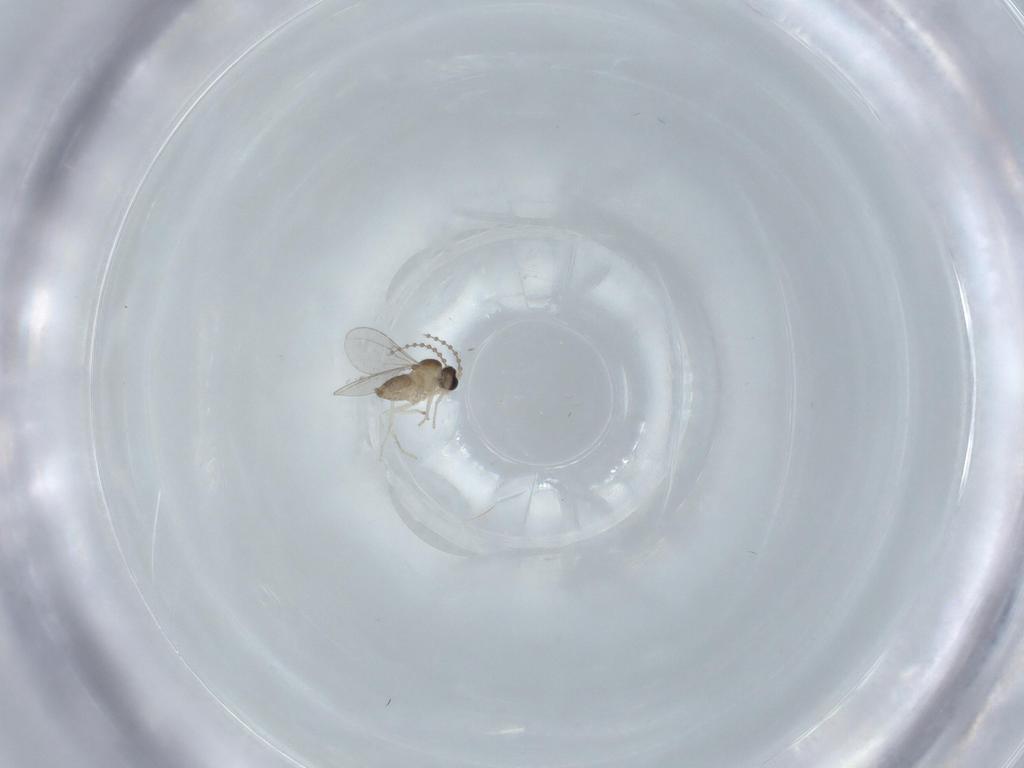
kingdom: Animalia
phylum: Arthropoda
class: Insecta
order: Diptera
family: Cecidomyiidae
